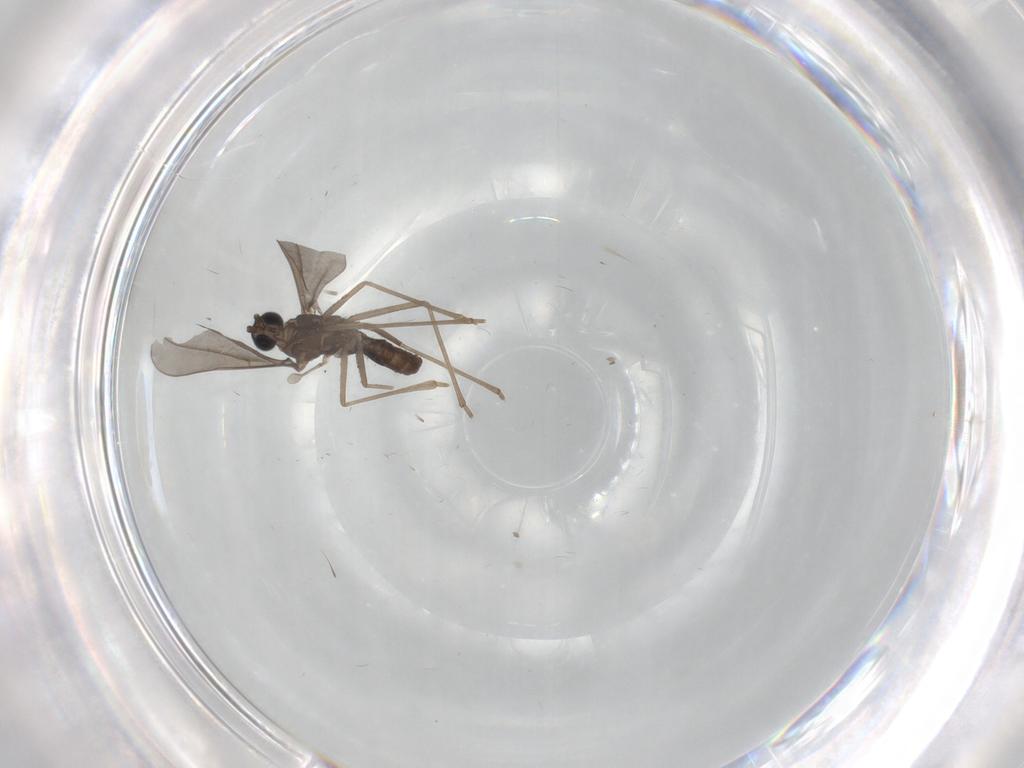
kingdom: Animalia
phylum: Arthropoda
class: Insecta
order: Diptera
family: Cecidomyiidae
